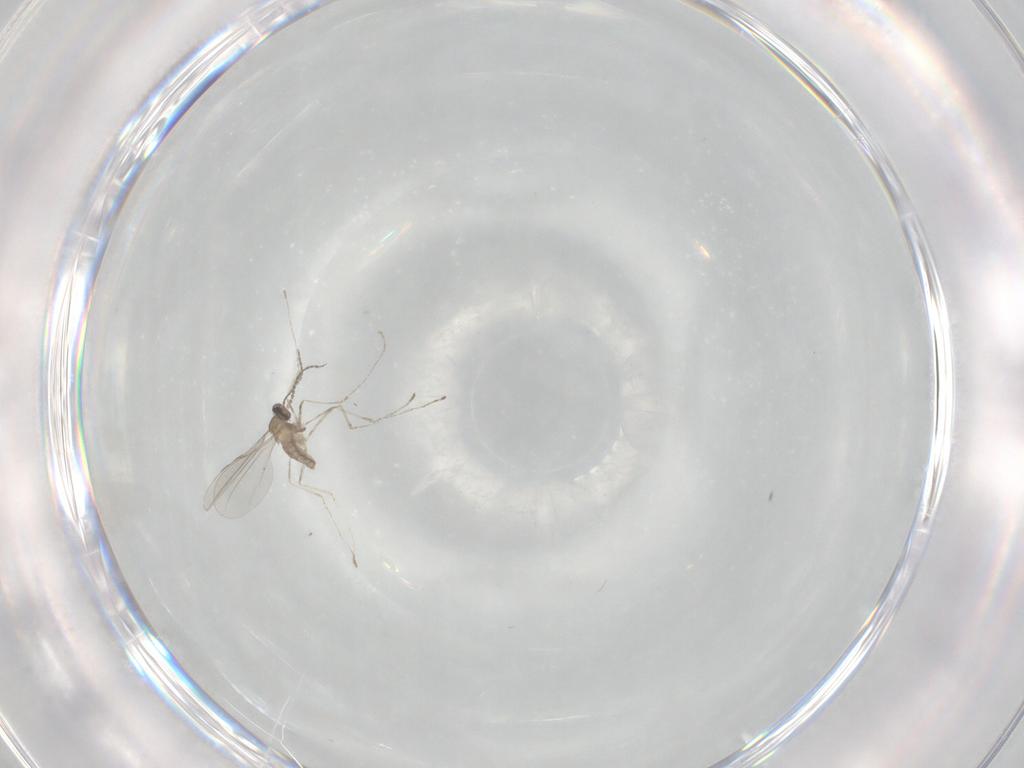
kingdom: Animalia
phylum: Arthropoda
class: Insecta
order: Diptera
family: Cecidomyiidae
